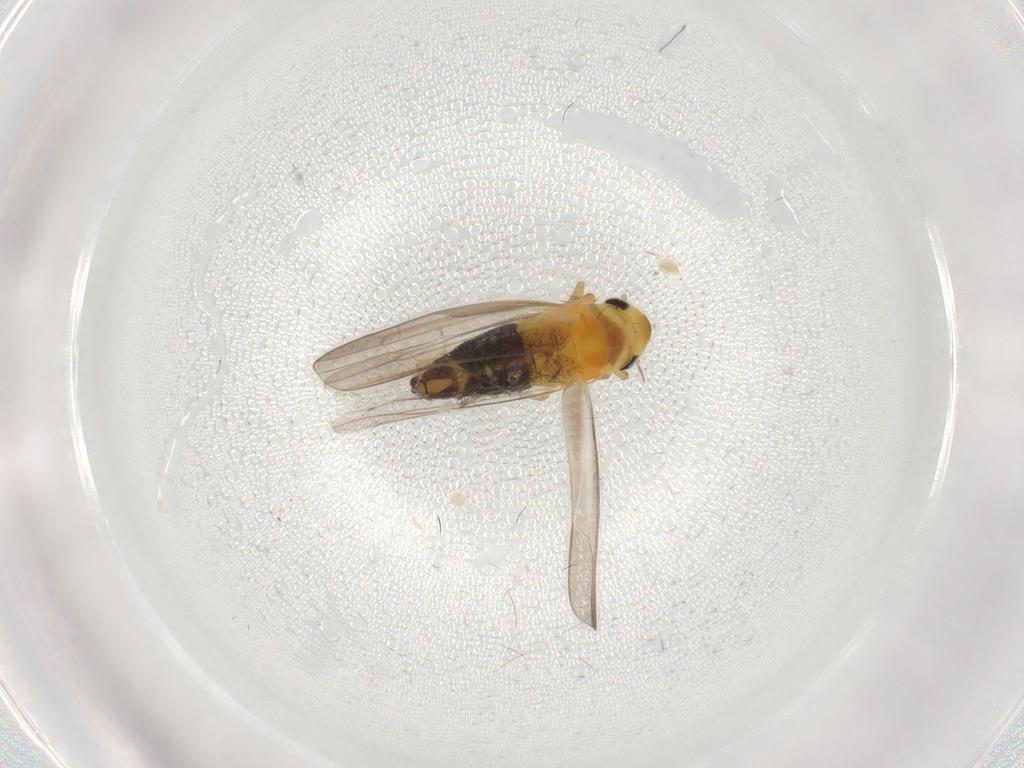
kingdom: Animalia
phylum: Arthropoda
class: Insecta
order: Hemiptera
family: Cicadellidae
